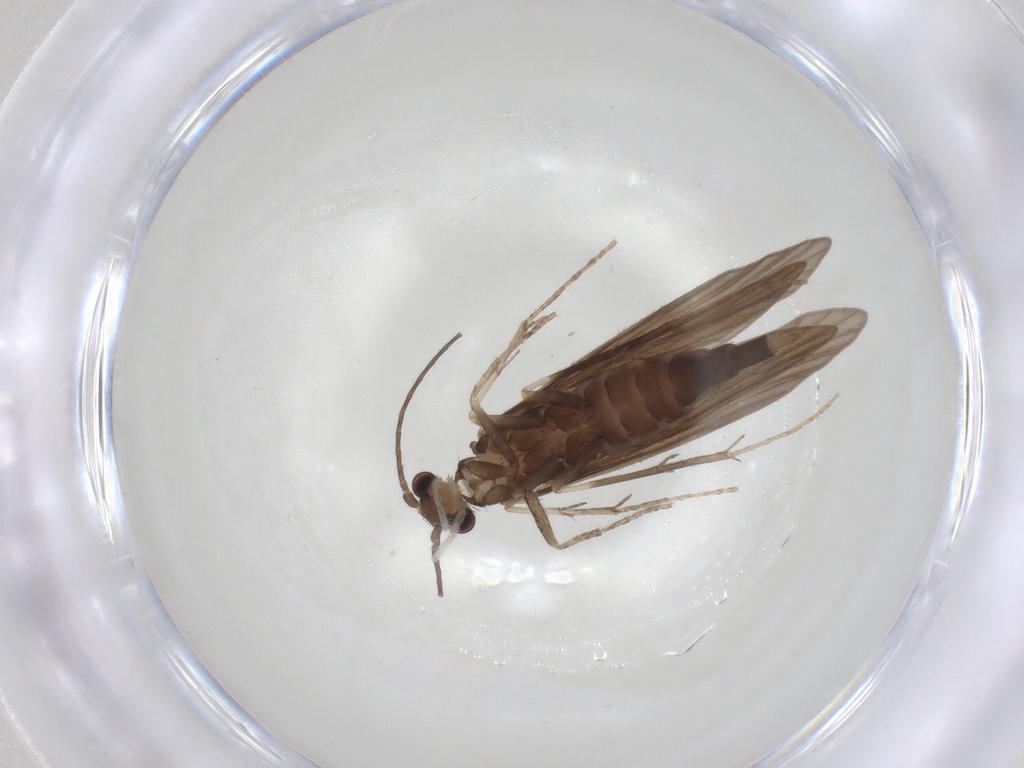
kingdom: Animalia
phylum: Arthropoda
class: Insecta
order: Trichoptera
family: Xiphocentronidae
